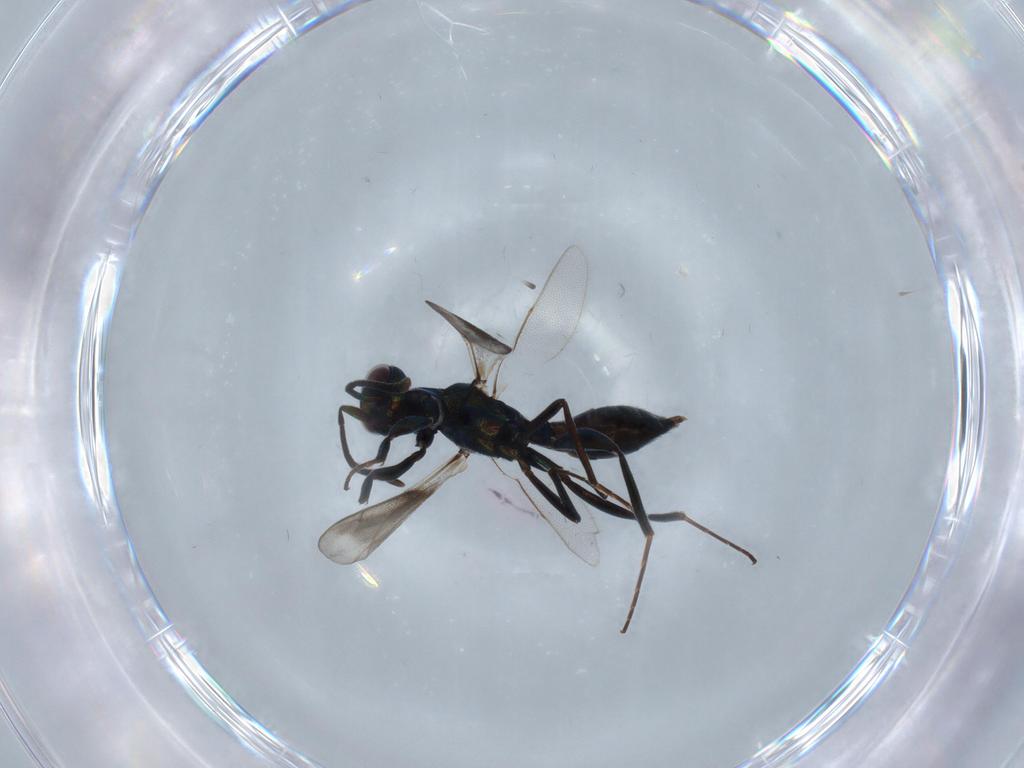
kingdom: Animalia
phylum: Arthropoda
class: Insecta
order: Hymenoptera
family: Eupelmidae
